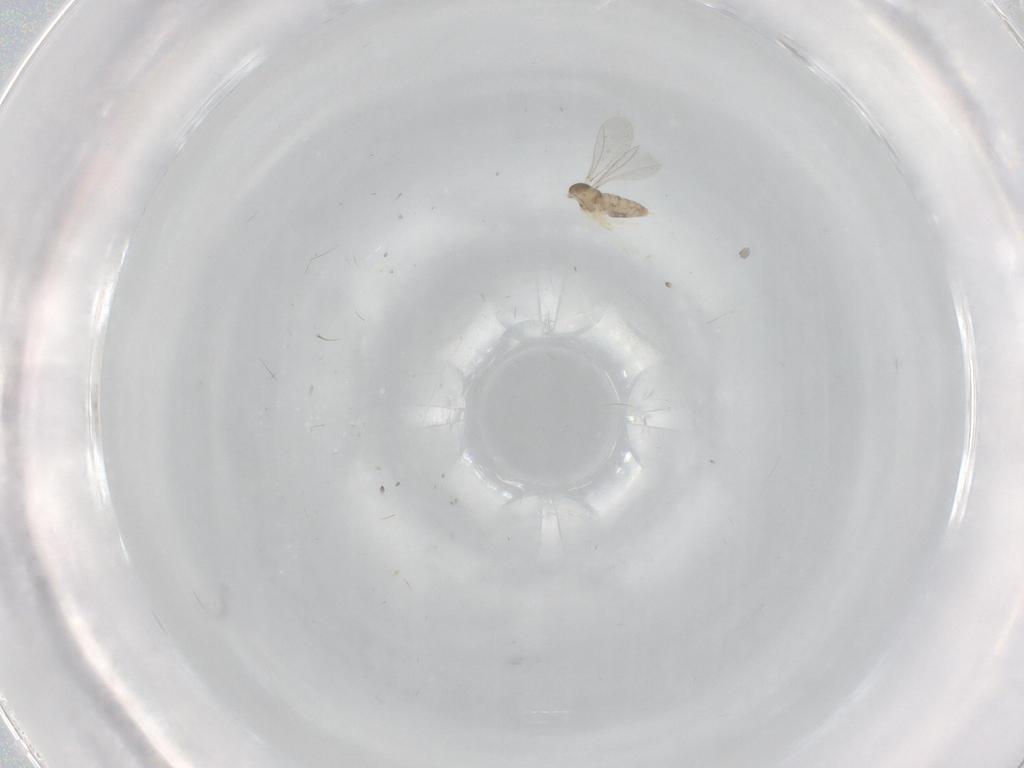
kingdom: Animalia
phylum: Arthropoda
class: Insecta
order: Diptera
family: Cecidomyiidae
